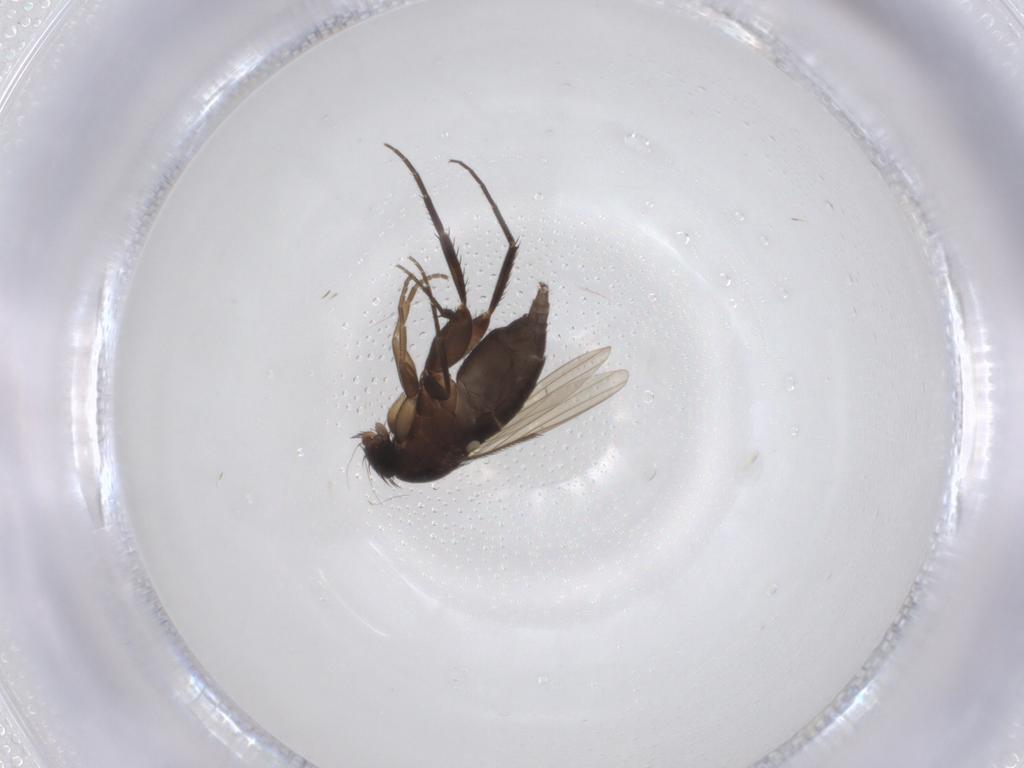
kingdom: Animalia
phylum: Arthropoda
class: Insecta
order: Diptera
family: Phoridae
